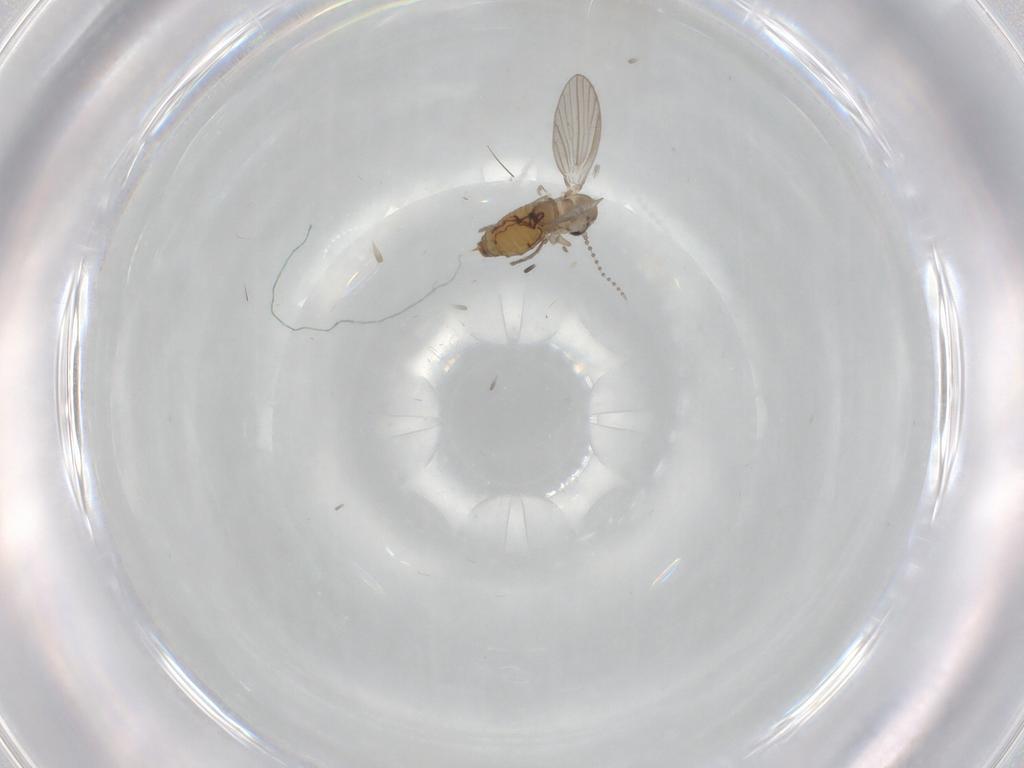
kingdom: Animalia
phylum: Arthropoda
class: Insecta
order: Diptera
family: Psychodidae
